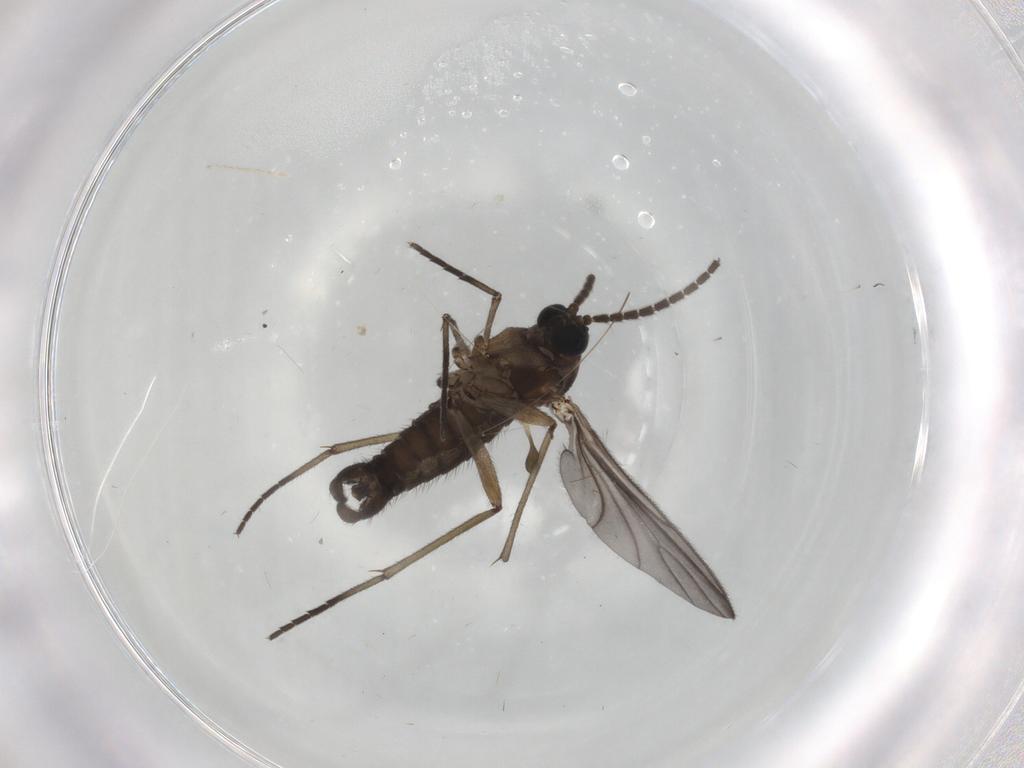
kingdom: Animalia
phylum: Arthropoda
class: Insecta
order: Diptera
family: Sciaridae
